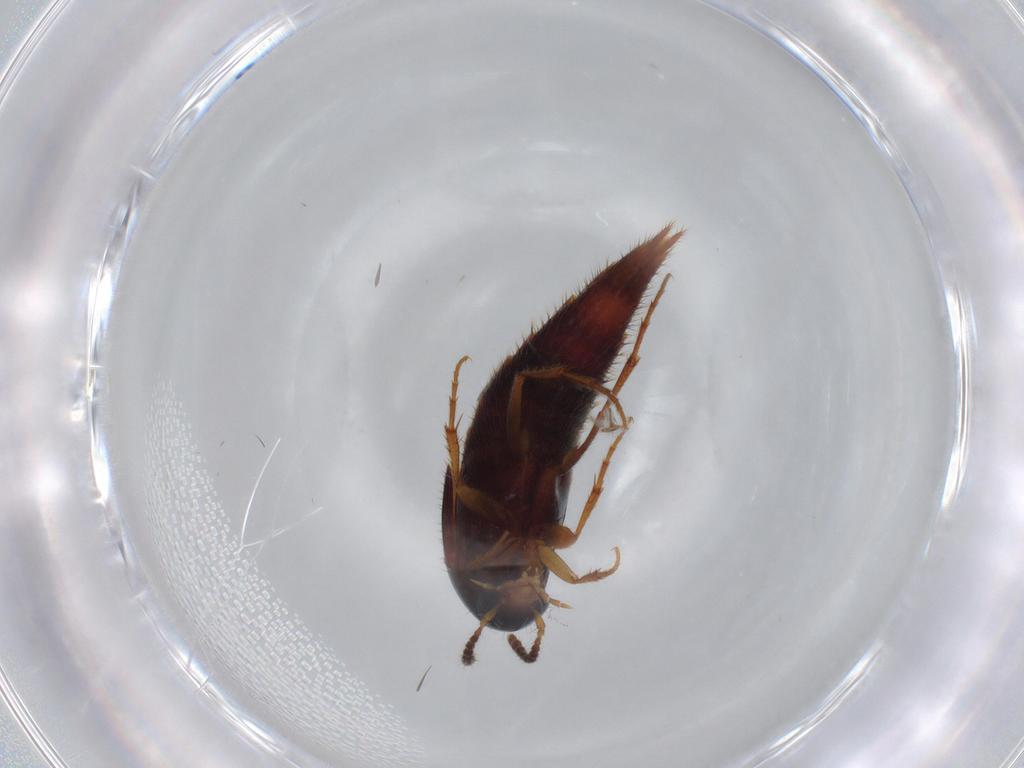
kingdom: Animalia
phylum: Arthropoda
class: Insecta
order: Coleoptera
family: Staphylinidae
